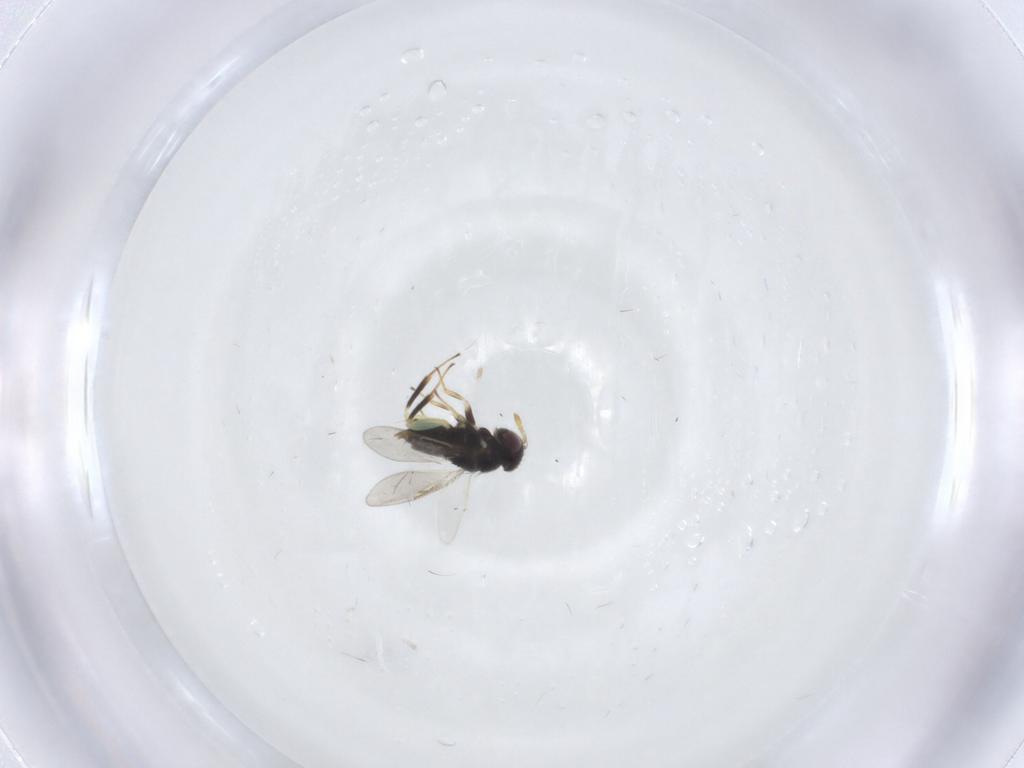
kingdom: Animalia
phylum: Arthropoda
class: Insecta
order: Hymenoptera
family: Aphelinidae
